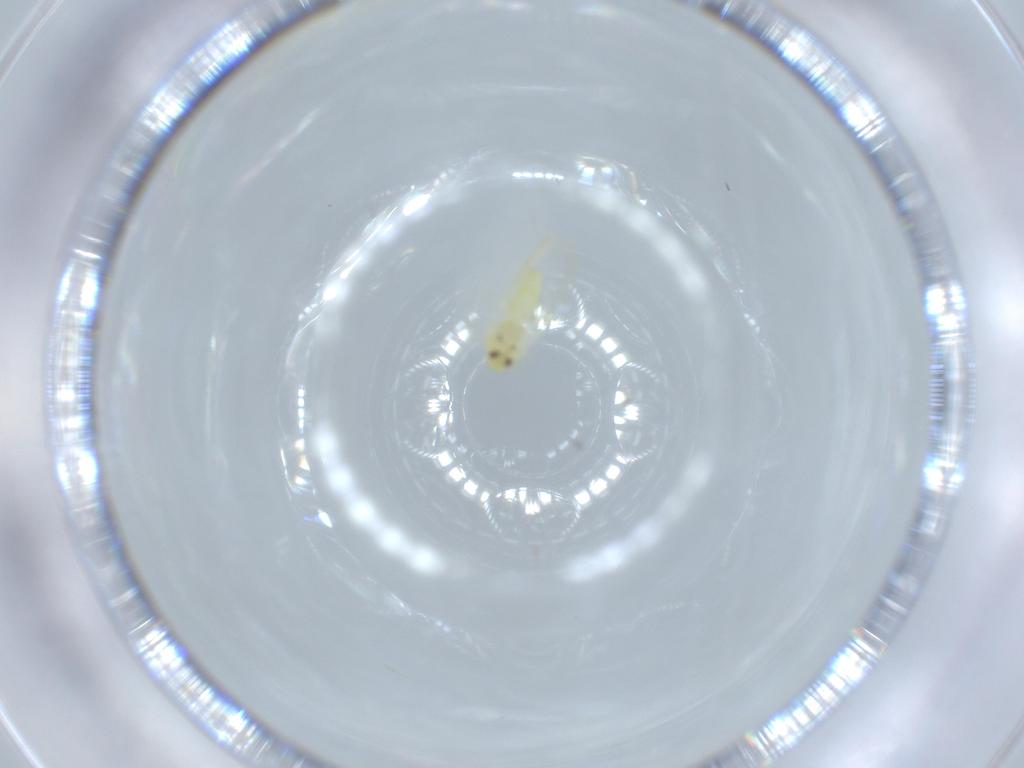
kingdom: Animalia
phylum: Arthropoda
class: Insecta
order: Hemiptera
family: Aleyrodidae
